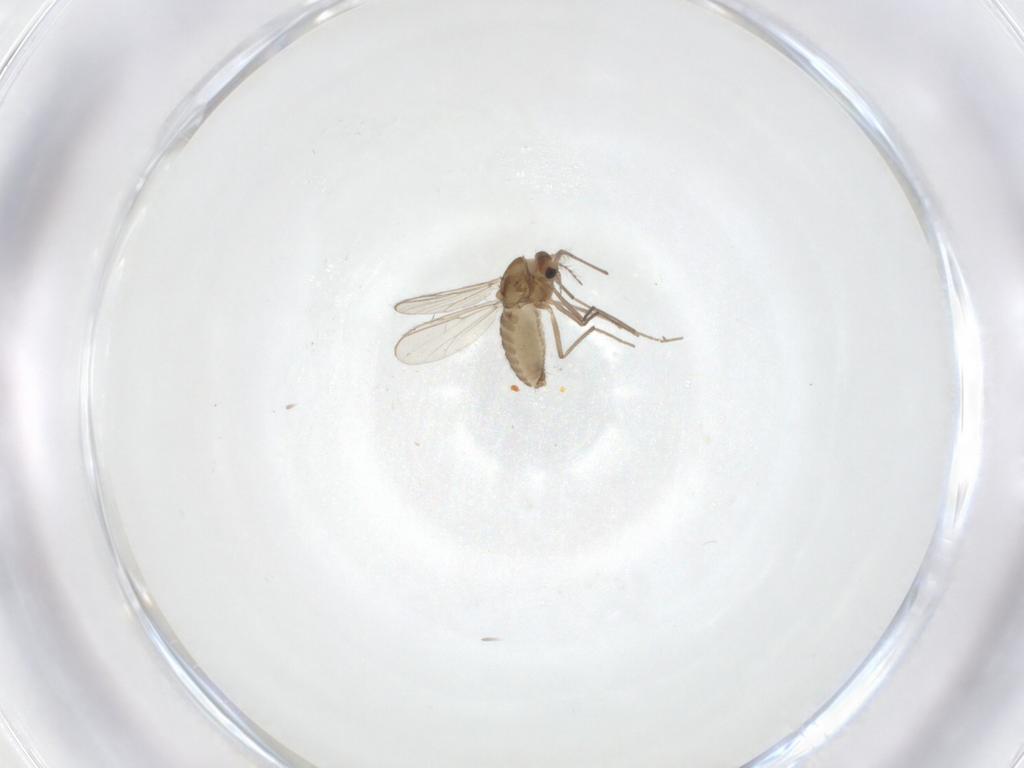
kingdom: Animalia
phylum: Arthropoda
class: Insecta
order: Diptera
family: Chironomidae
